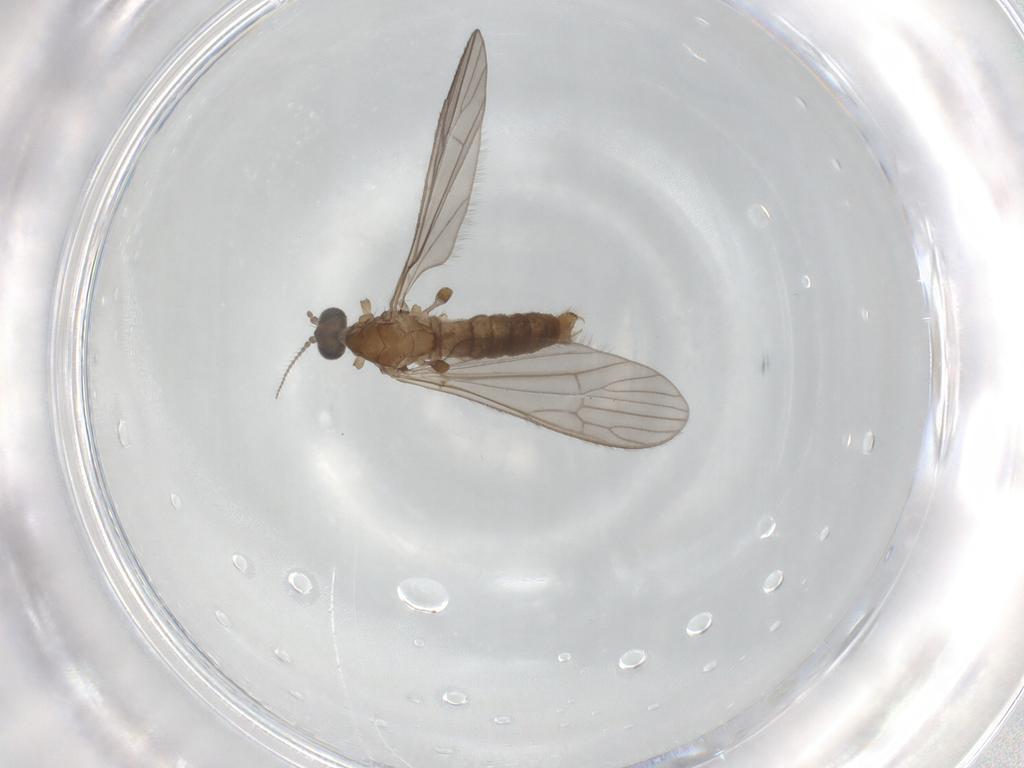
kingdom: Animalia
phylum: Arthropoda
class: Insecta
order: Diptera
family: Limoniidae
